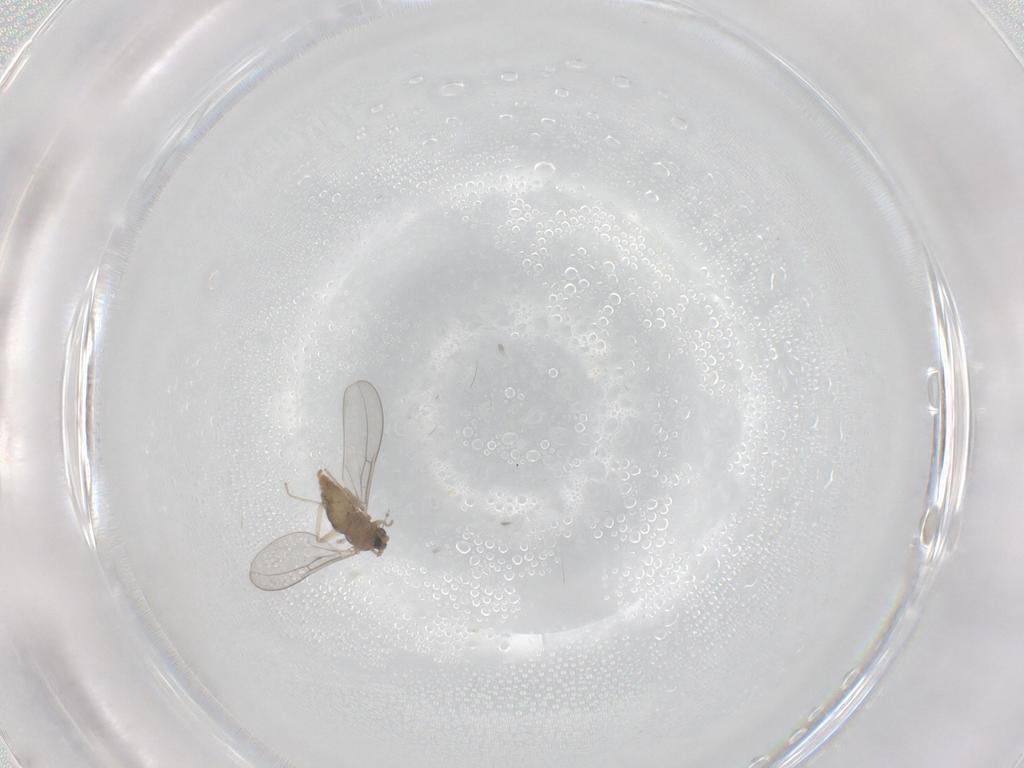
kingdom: Animalia
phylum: Arthropoda
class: Insecta
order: Diptera
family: Cecidomyiidae
